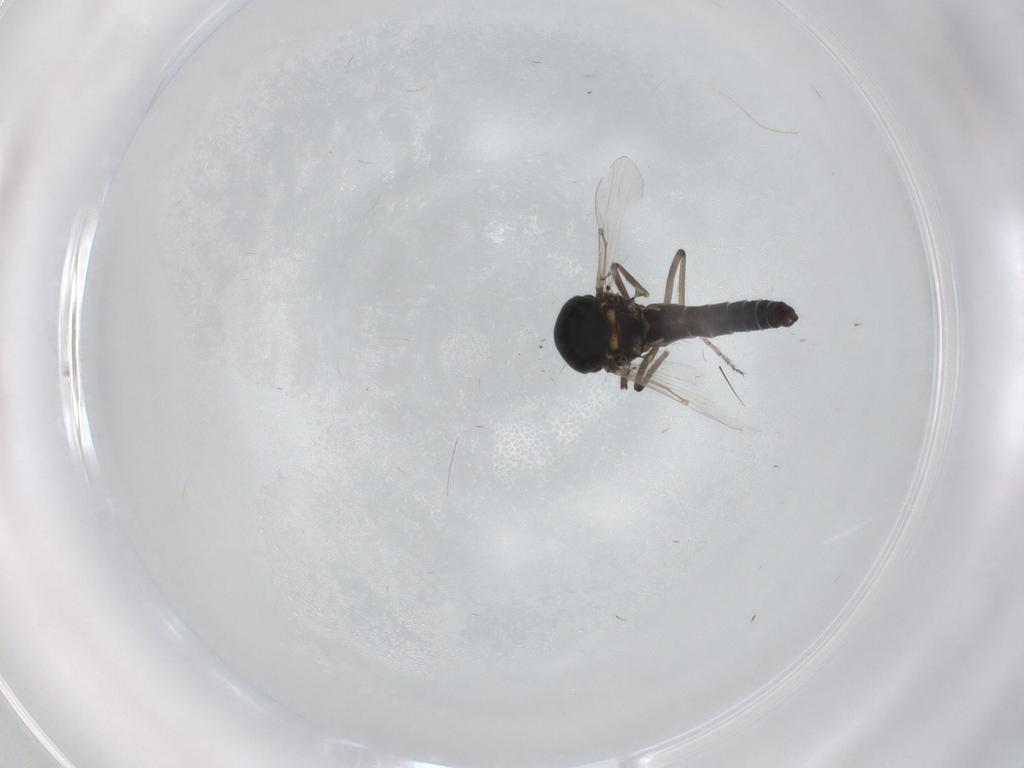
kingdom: Animalia
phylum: Arthropoda
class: Insecta
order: Diptera
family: Ceratopogonidae
